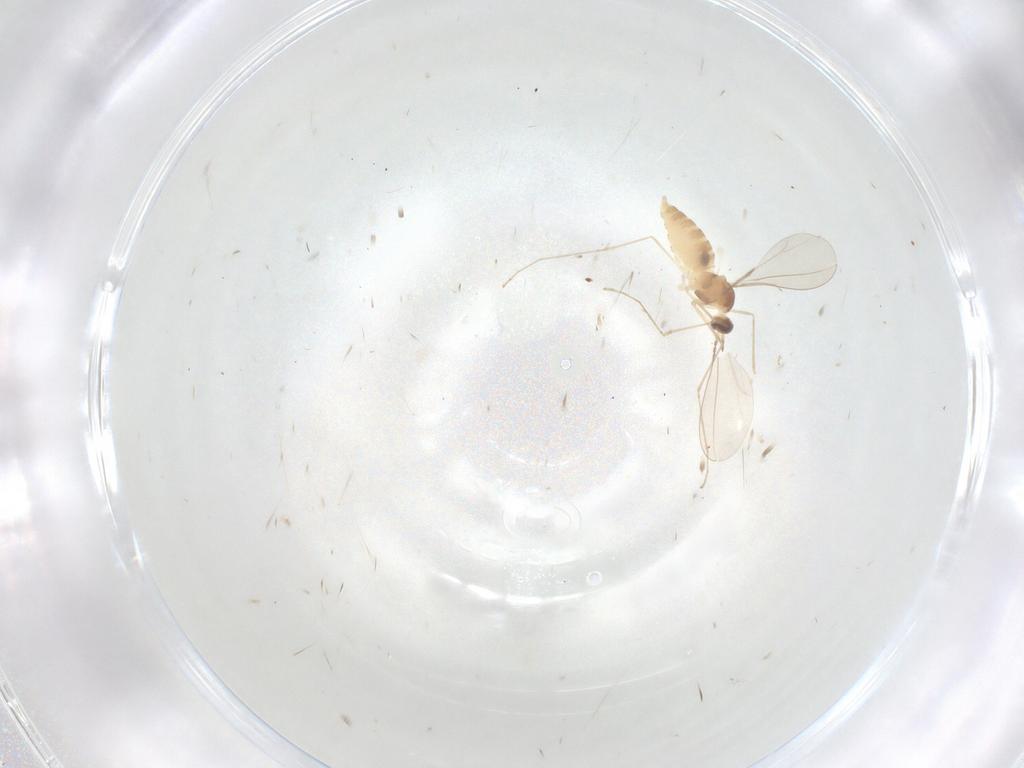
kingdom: Animalia
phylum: Arthropoda
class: Insecta
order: Diptera
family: Cecidomyiidae
